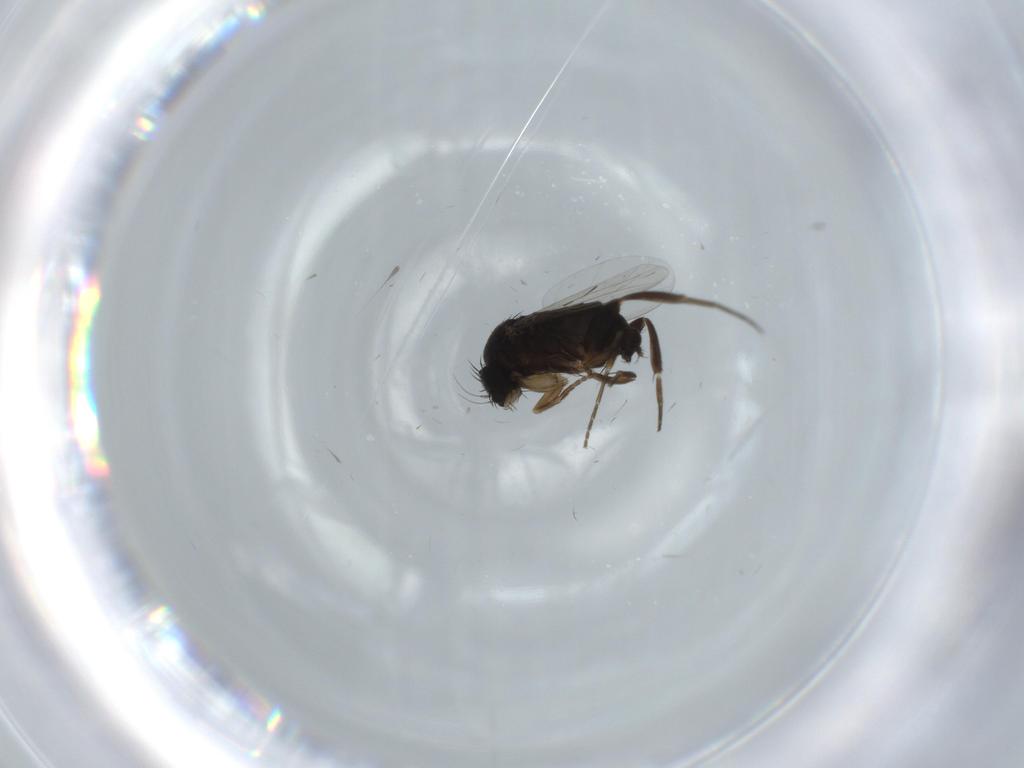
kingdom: Animalia
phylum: Arthropoda
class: Insecta
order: Diptera
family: Phoridae
